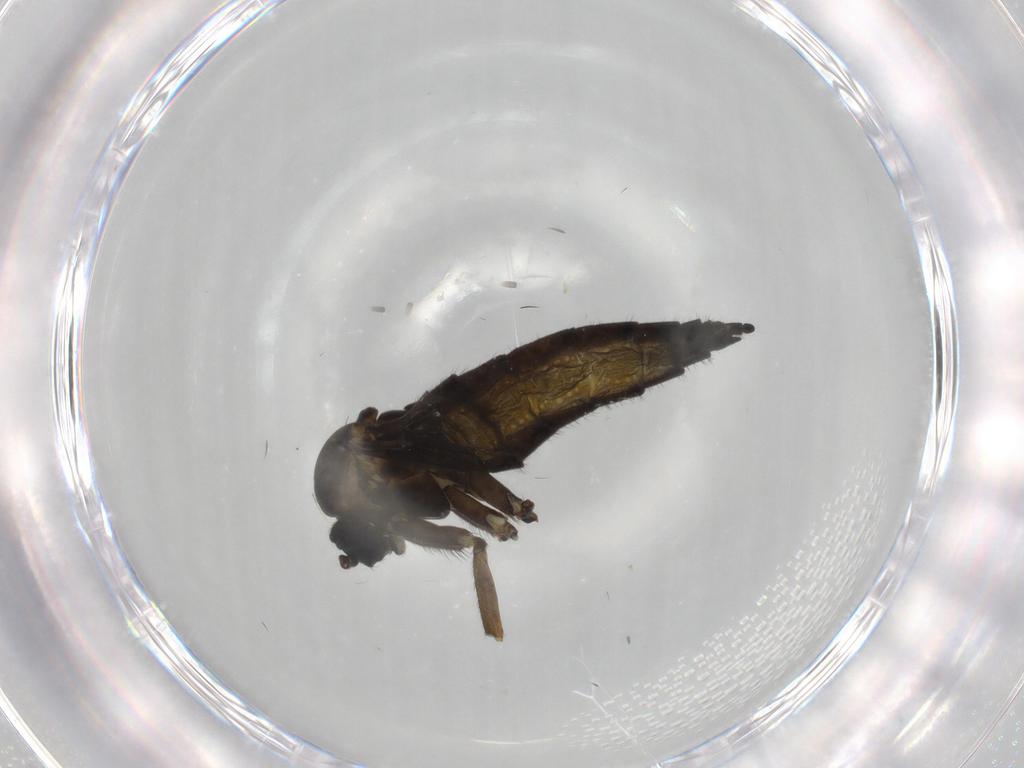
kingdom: Animalia
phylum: Arthropoda
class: Insecta
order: Diptera
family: Sciaridae
